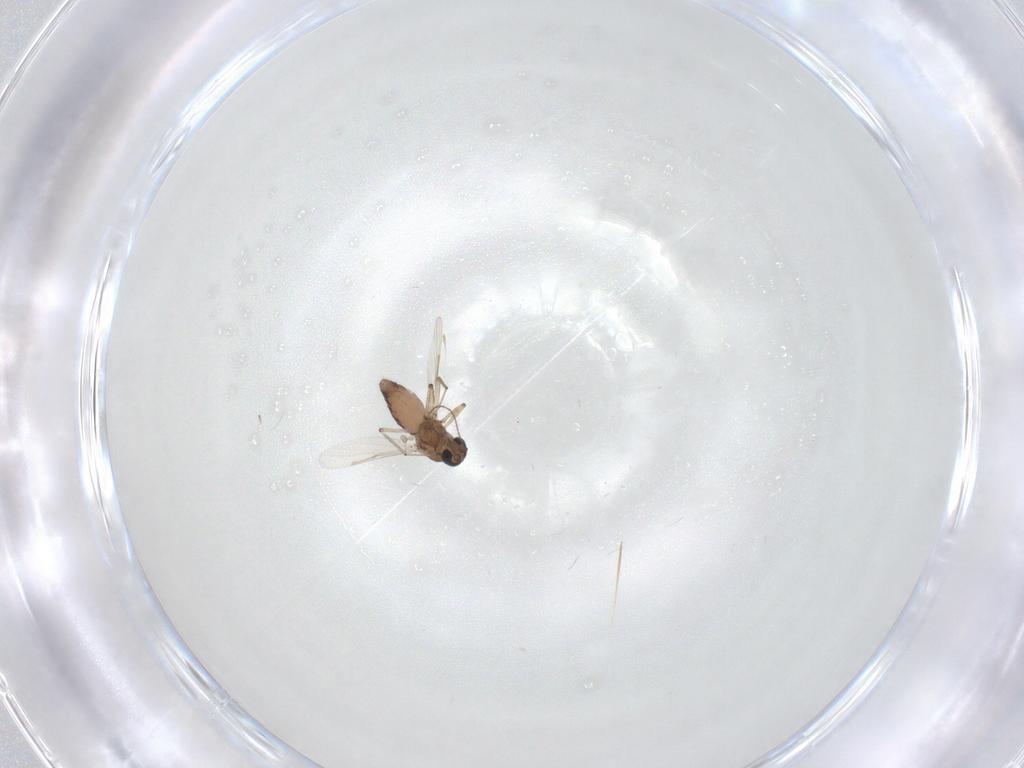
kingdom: Animalia
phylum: Arthropoda
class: Insecta
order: Diptera
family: Ceratopogonidae
